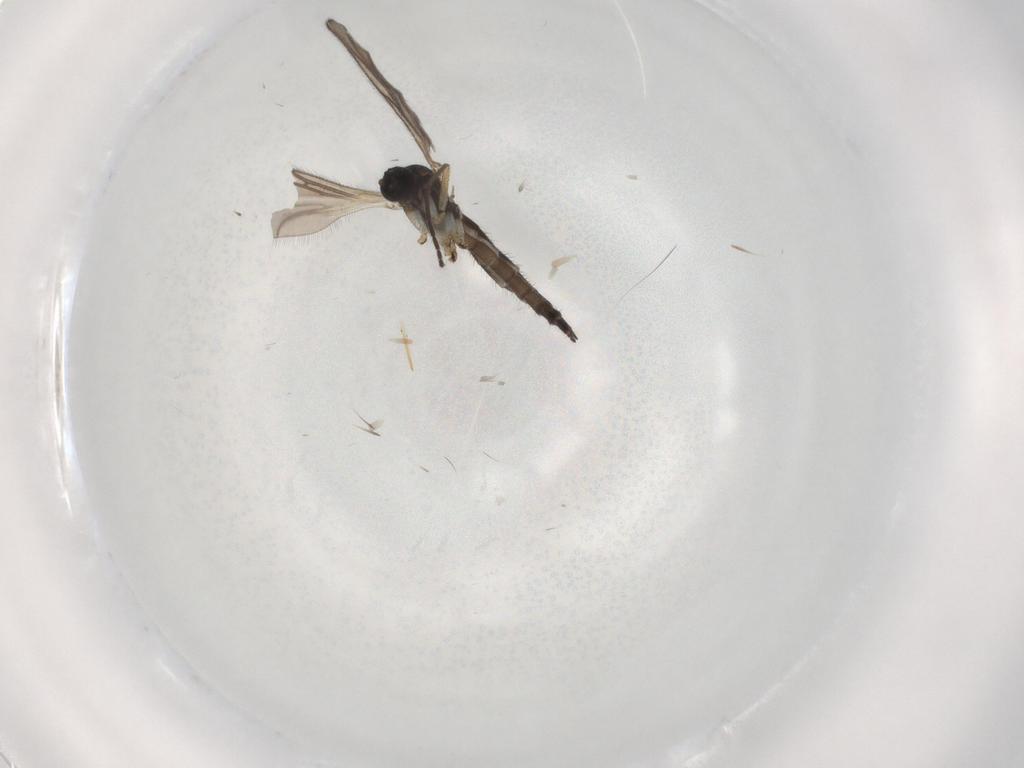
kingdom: Animalia
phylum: Arthropoda
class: Insecta
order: Diptera
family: Sciaridae
